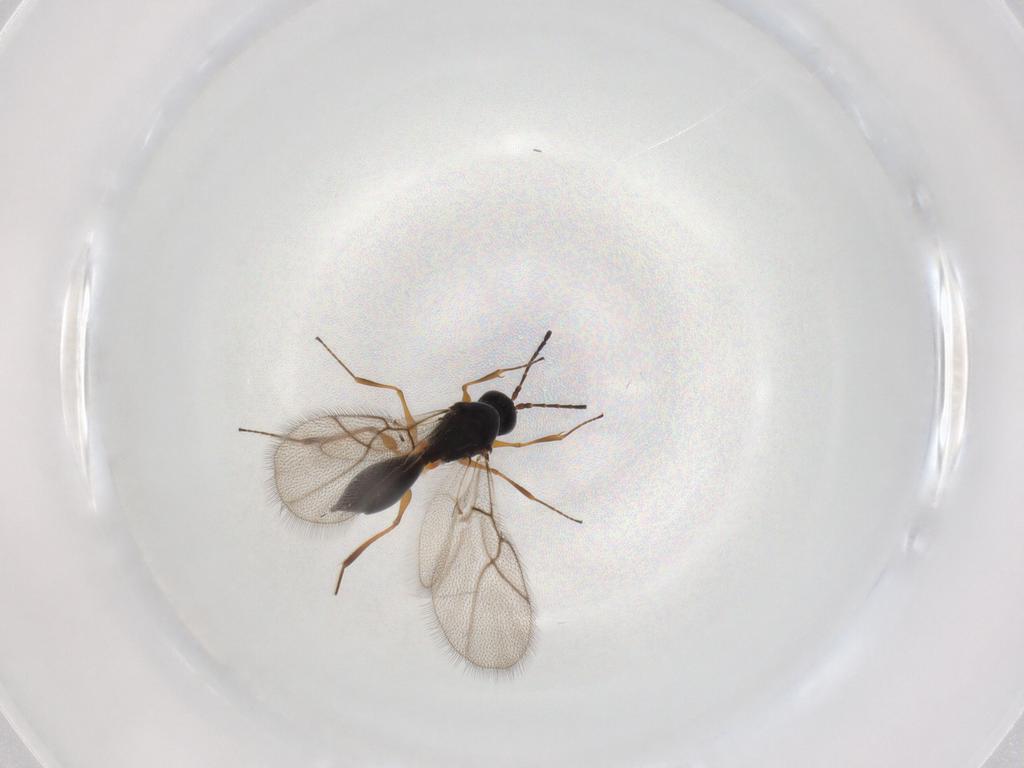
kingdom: Animalia
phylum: Arthropoda
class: Insecta
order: Hymenoptera
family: Figitidae
